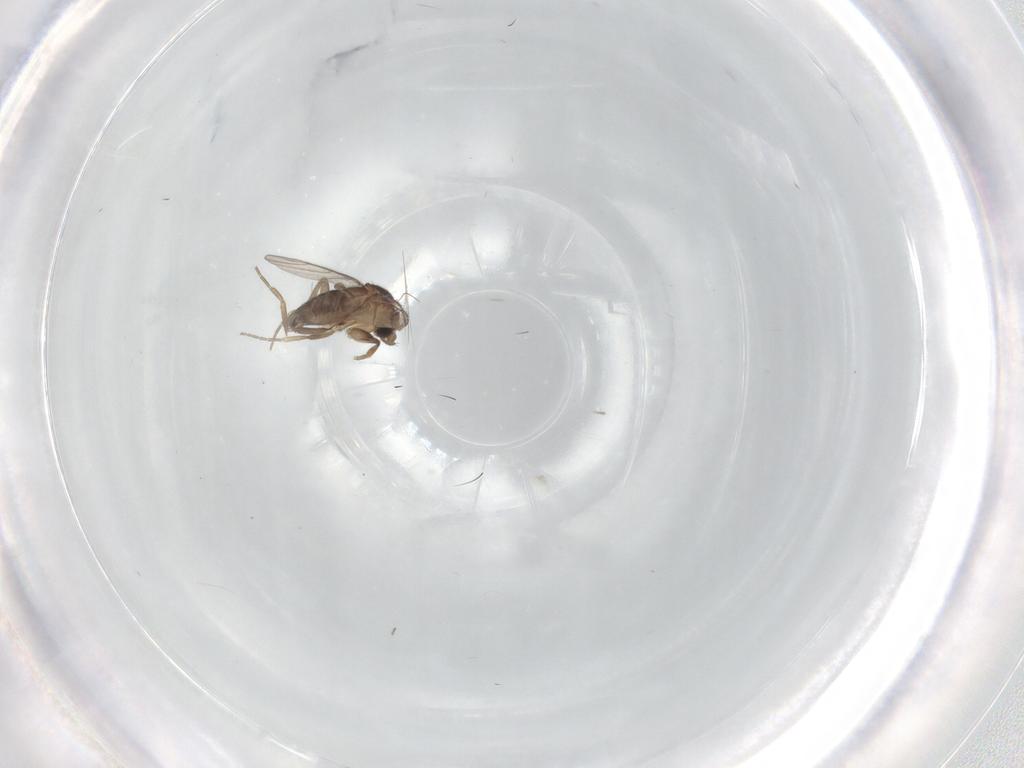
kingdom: Animalia
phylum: Arthropoda
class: Insecta
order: Diptera
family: Phoridae
